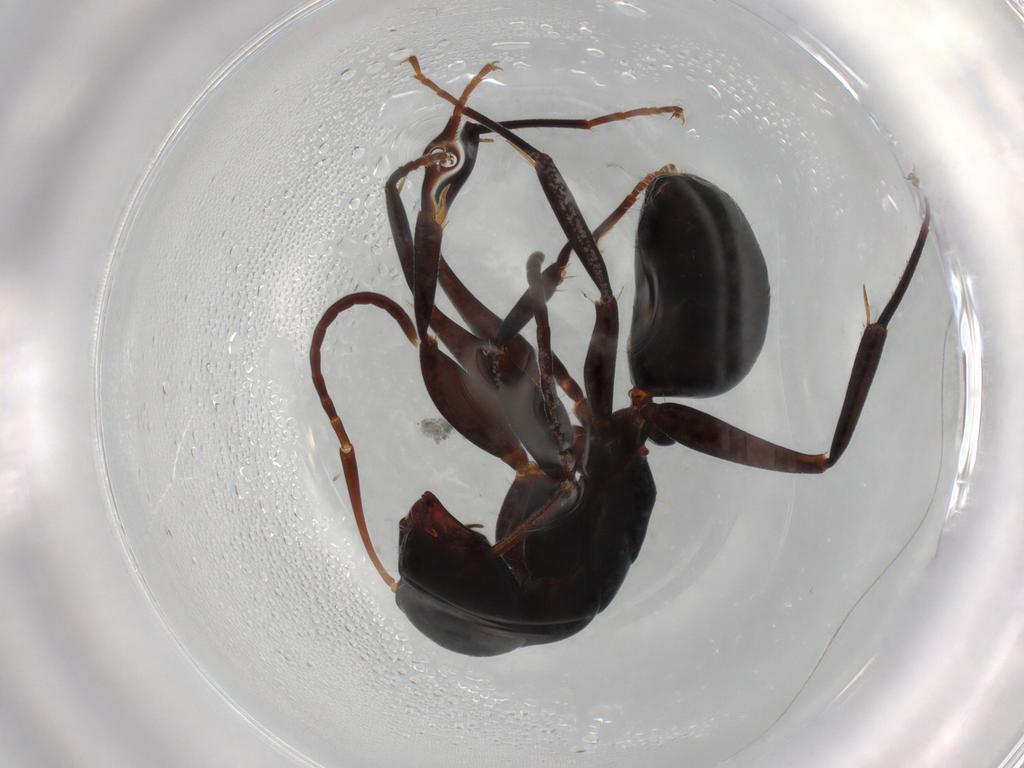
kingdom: Animalia
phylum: Arthropoda
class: Insecta
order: Hymenoptera
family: Formicidae
